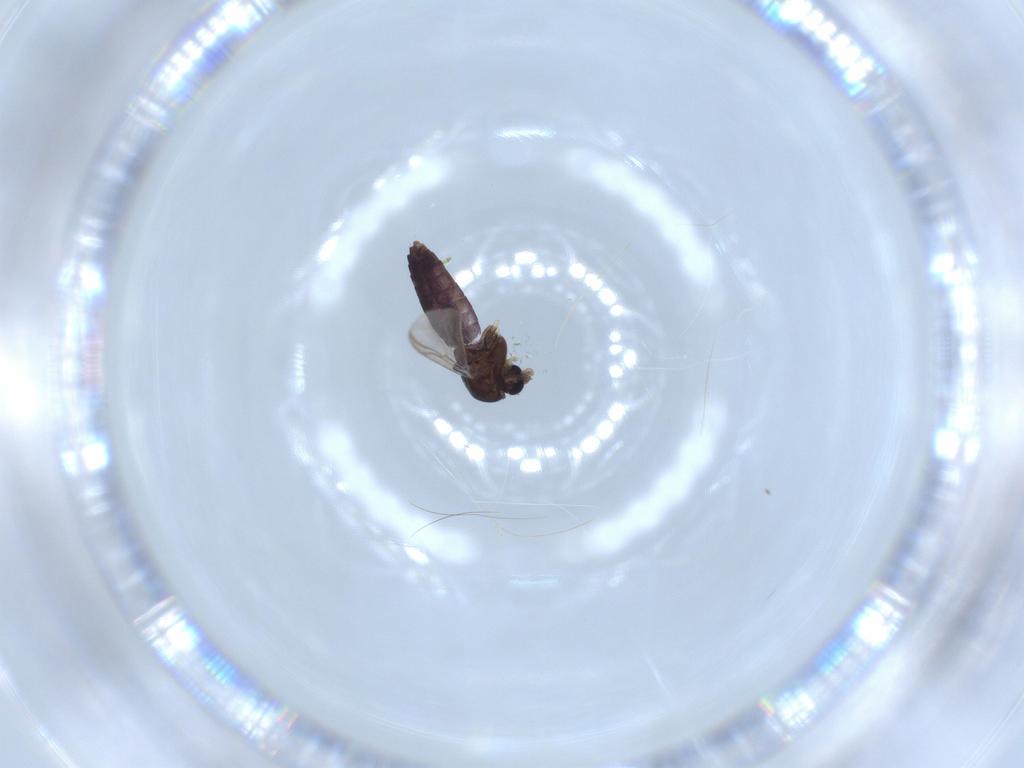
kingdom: Animalia
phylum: Arthropoda
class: Insecta
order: Diptera
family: Chironomidae
